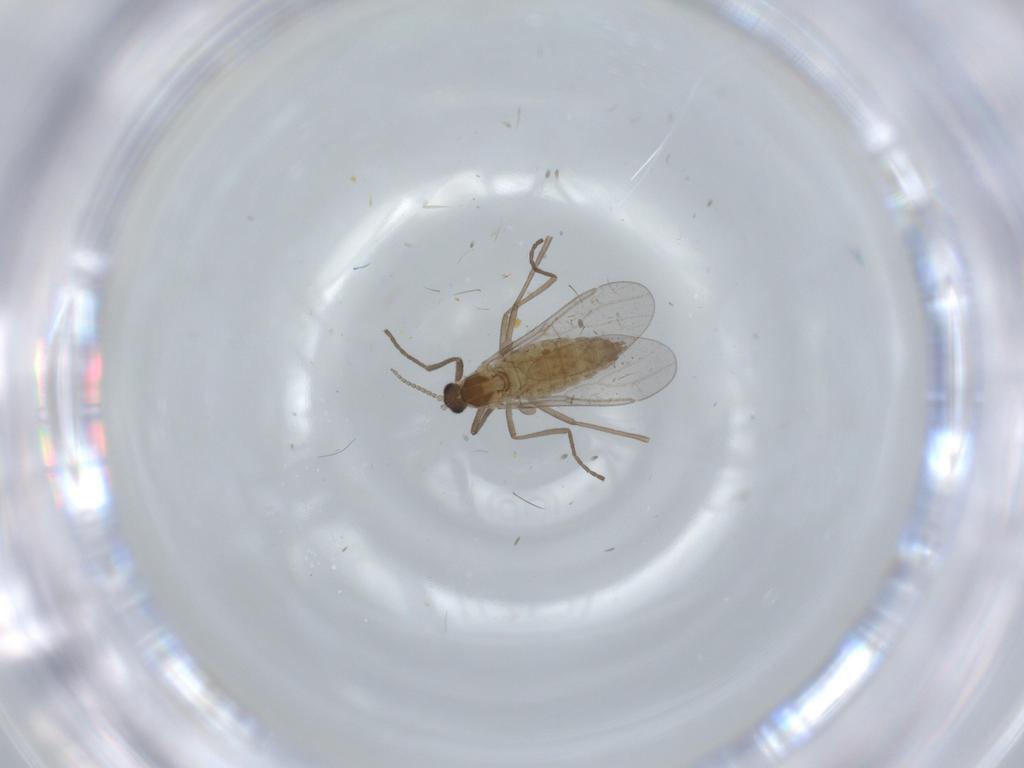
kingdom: Animalia
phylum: Arthropoda
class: Insecta
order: Diptera
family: Cecidomyiidae
